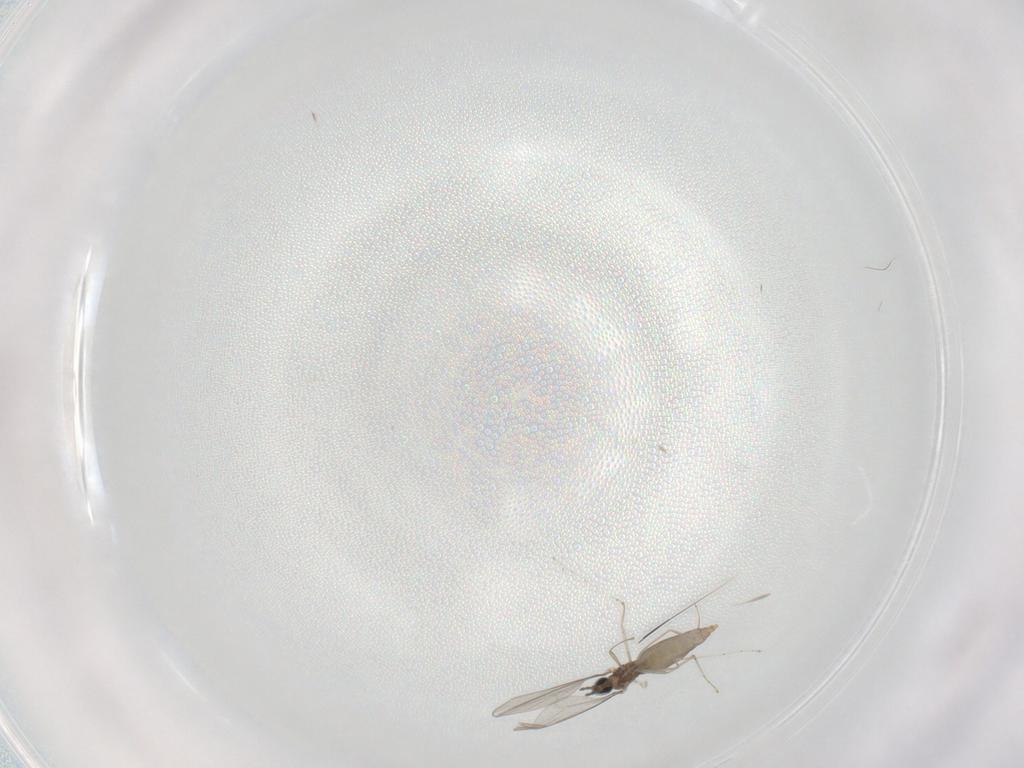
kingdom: Animalia
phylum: Arthropoda
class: Insecta
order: Diptera
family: Cecidomyiidae
